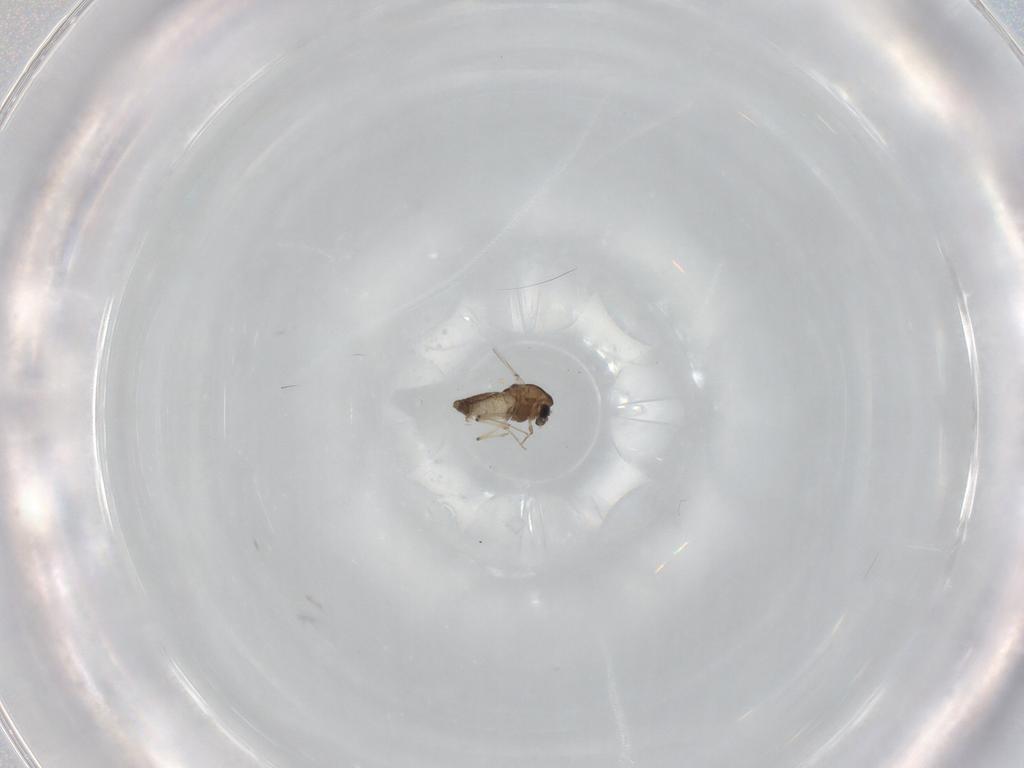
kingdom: Animalia
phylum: Arthropoda
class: Insecta
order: Diptera
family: Chironomidae
